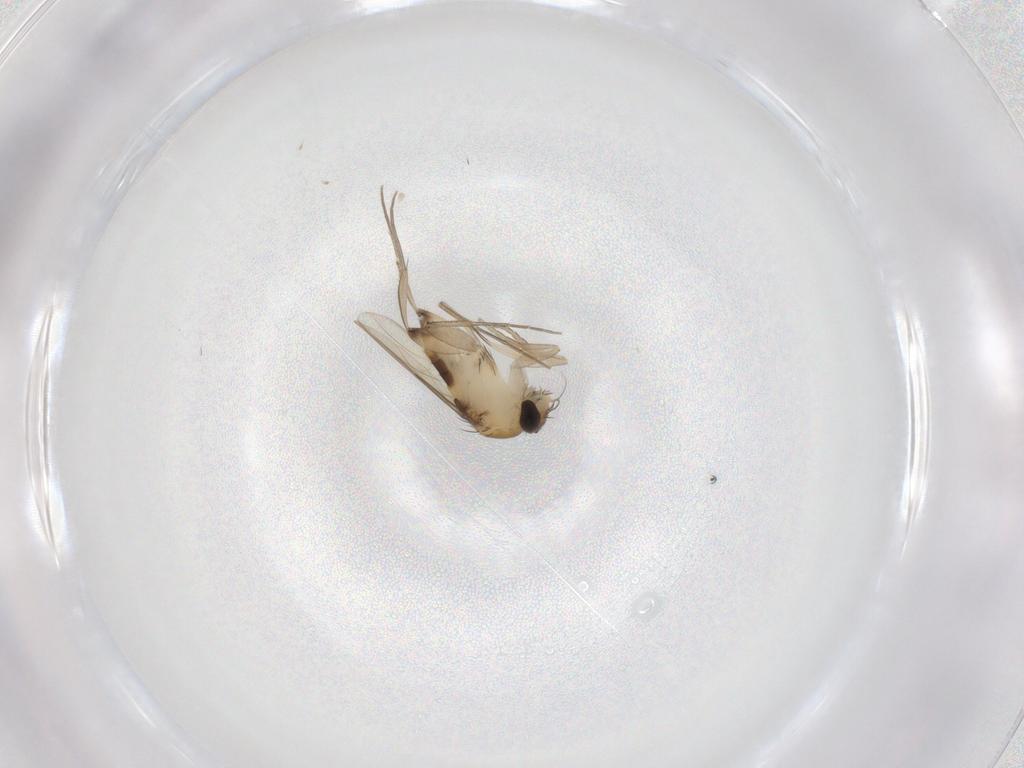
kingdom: Animalia
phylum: Arthropoda
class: Insecta
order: Diptera
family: Phoridae
